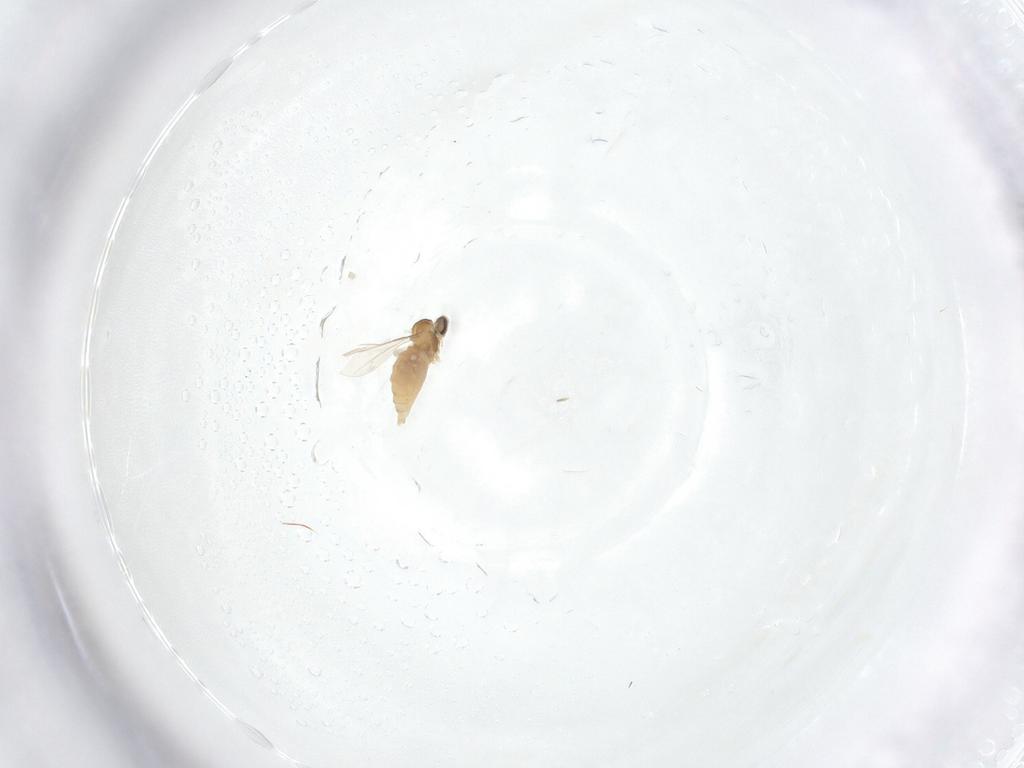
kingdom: Animalia
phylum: Arthropoda
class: Insecta
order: Diptera
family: Cecidomyiidae
